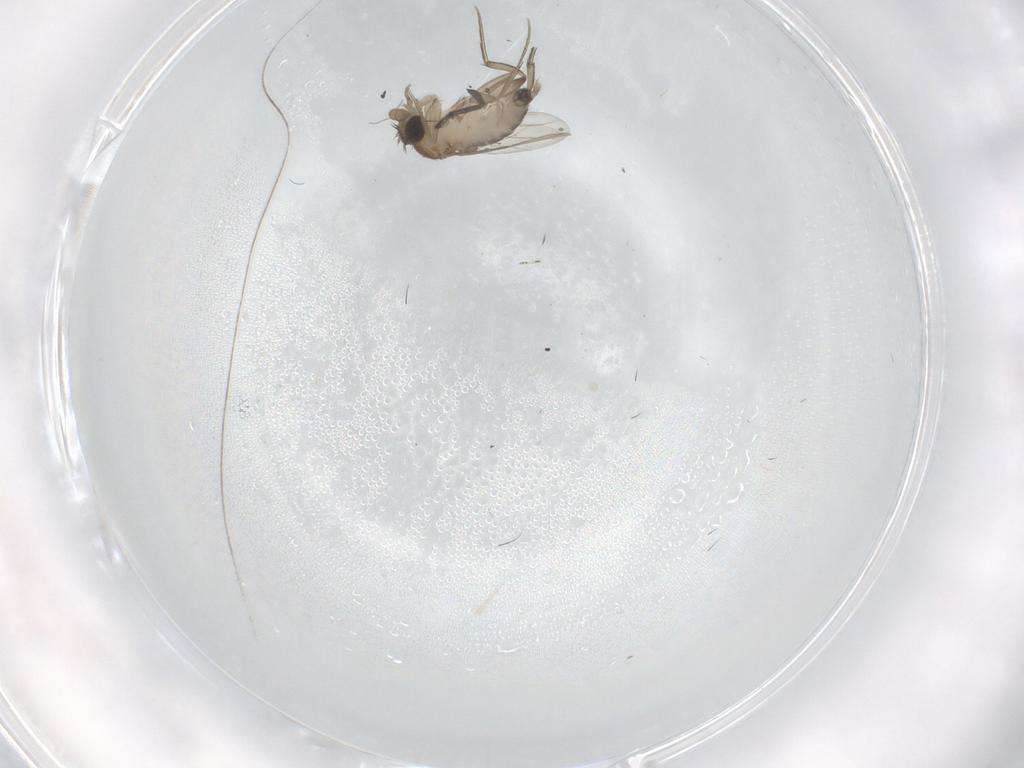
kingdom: Animalia
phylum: Arthropoda
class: Insecta
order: Diptera
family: Phoridae
